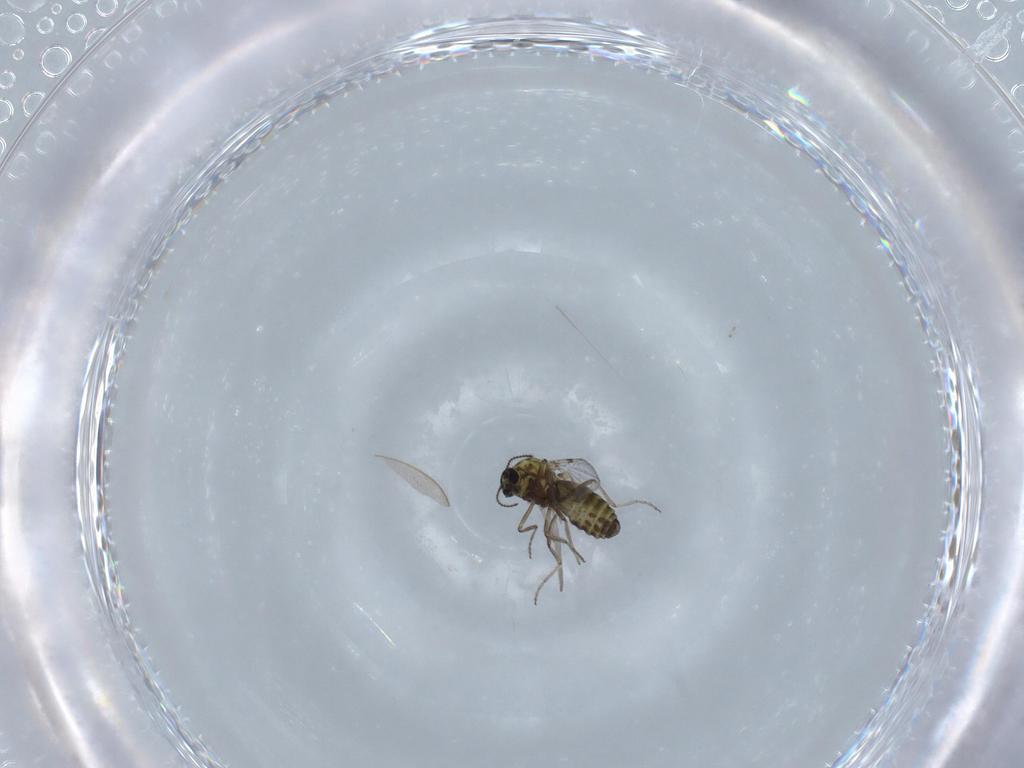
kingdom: Animalia
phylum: Arthropoda
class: Insecta
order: Diptera
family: Ceratopogonidae
